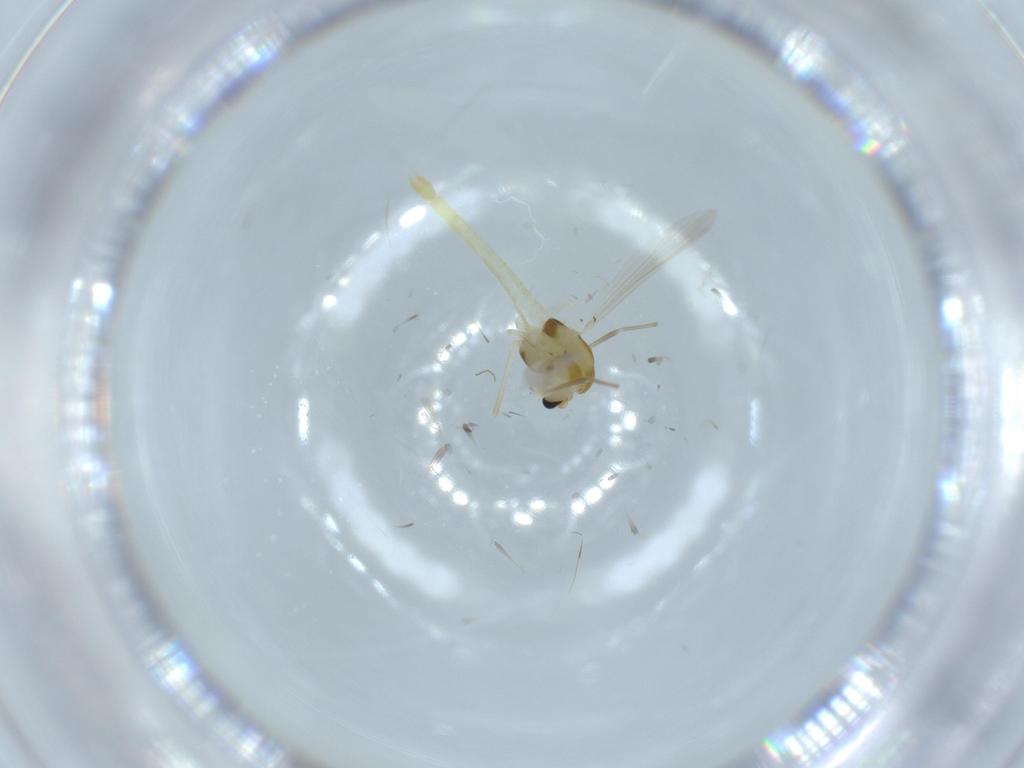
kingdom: Animalia
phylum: Arthropoda
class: Insecta
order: Diptera
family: Chironomidae
